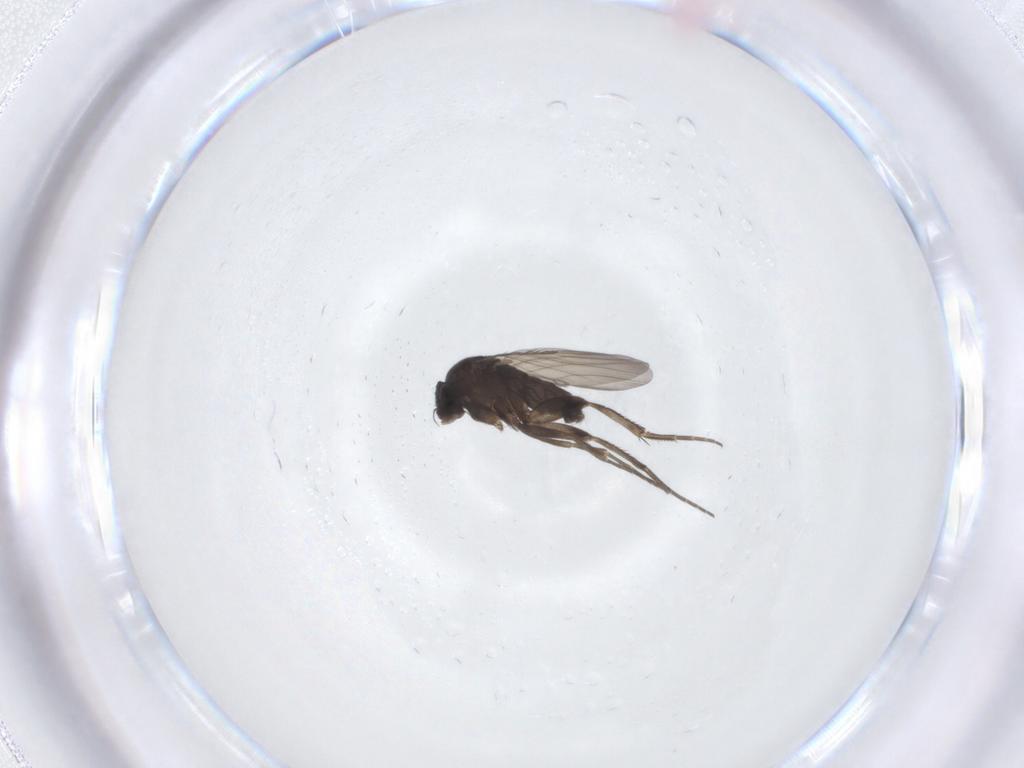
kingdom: Animalia
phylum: Arthropoda
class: Insecta
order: Diptera
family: Phoridae
